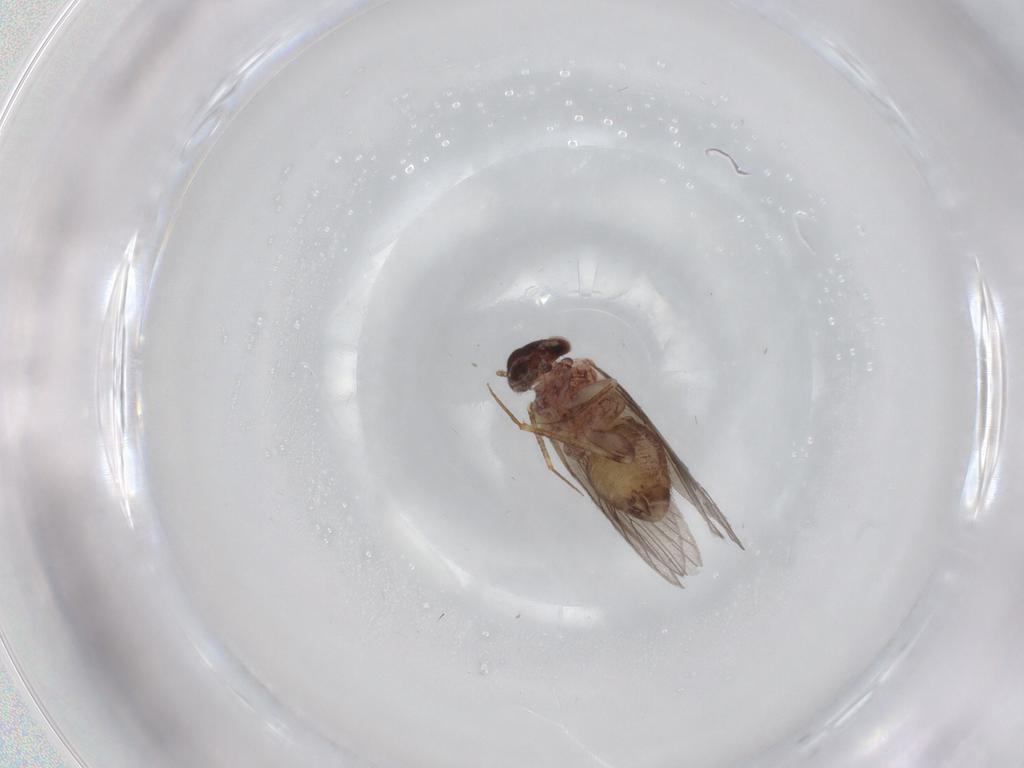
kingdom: Animalia
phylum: Arthropoda
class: Insecta
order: Psocodea
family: Lepidopsocidae
